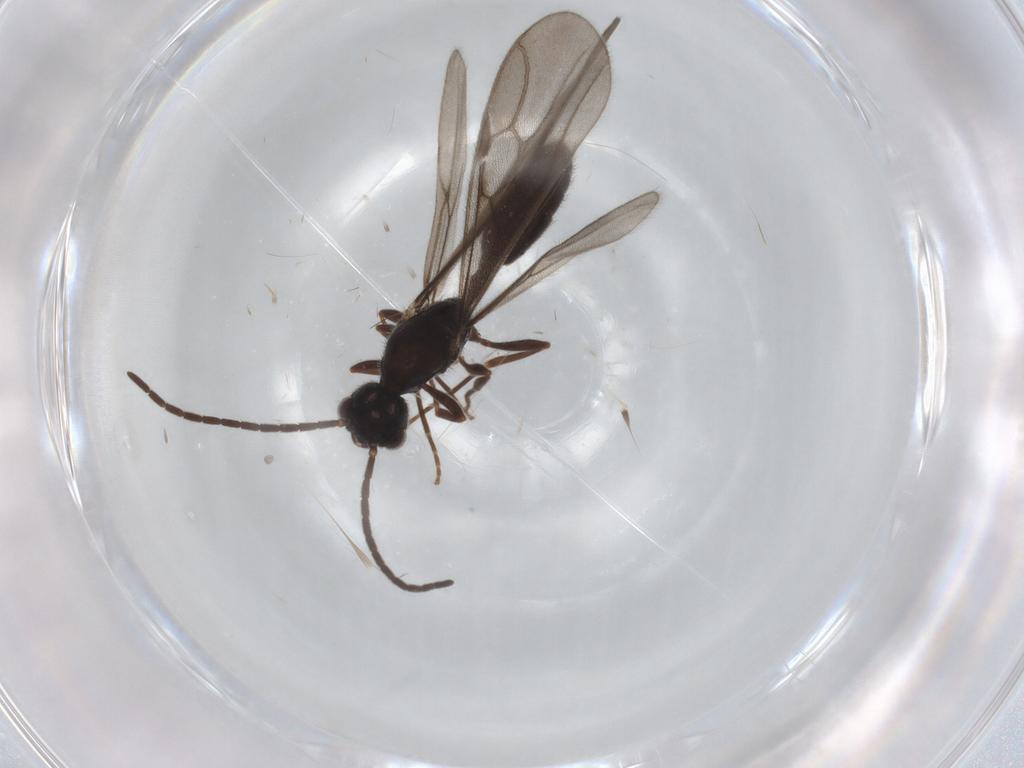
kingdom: Animalia
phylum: Arthropoda
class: Insecta
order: Hymenoptera
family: Formicidae
